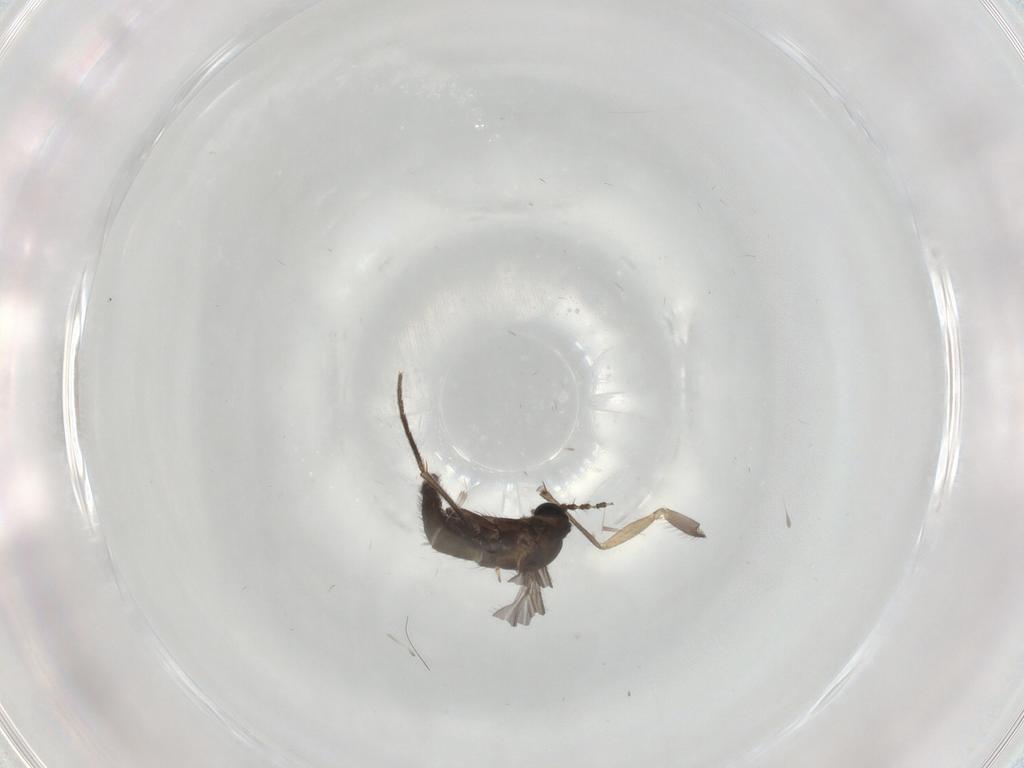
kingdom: Animalia
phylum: Arthropoda
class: Insecta
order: Diptera
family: Sciaridae
